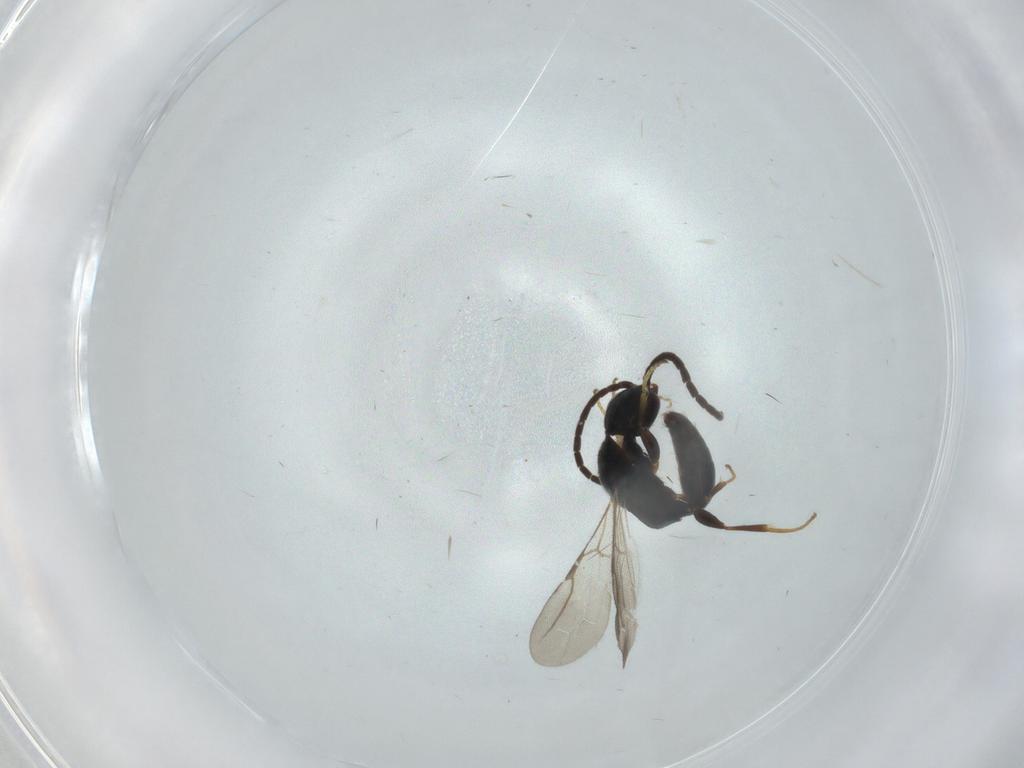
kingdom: Animalia
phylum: Arthropoda
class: Insecta
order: Hymenoptera
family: Bethylidae
